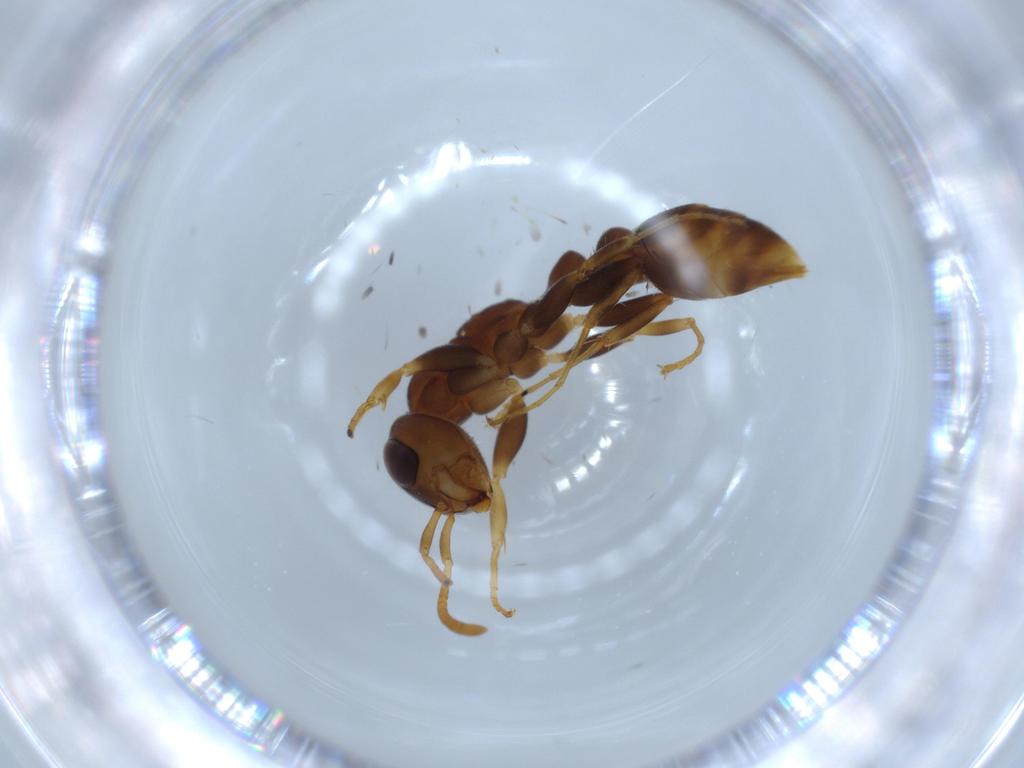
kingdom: Animalia
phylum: Arthropoda
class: Insecta
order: Hymenoptera
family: Formicidae
